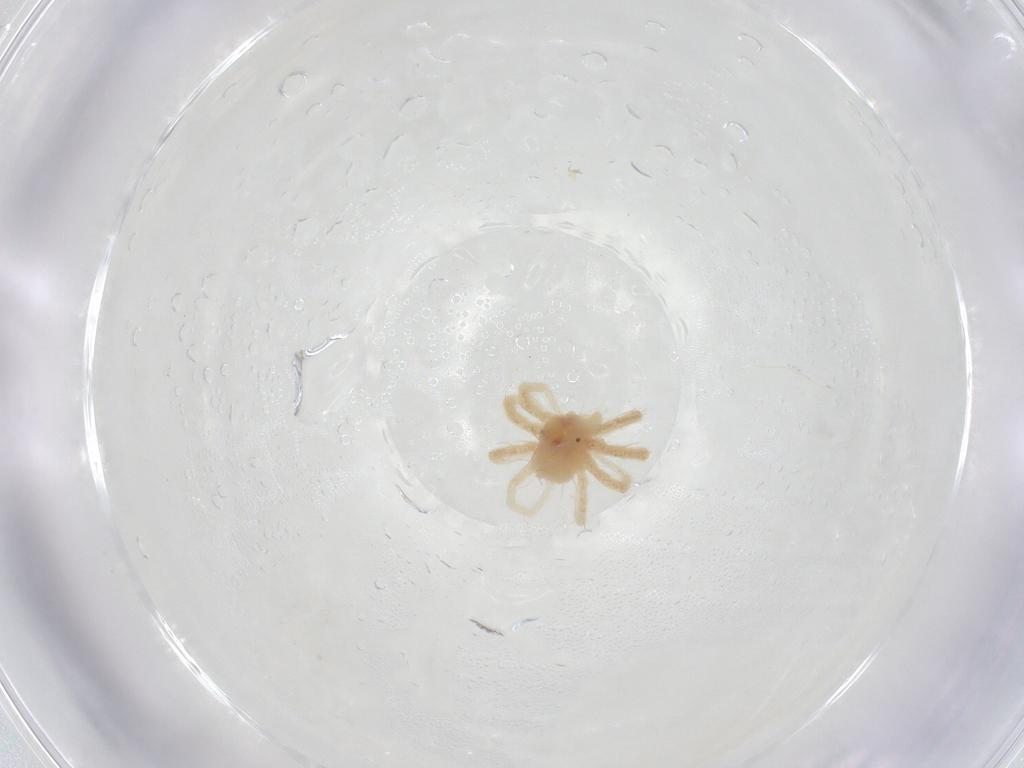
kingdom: Animalia
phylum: Arthropoda
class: Arachnida
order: Trombidiformes
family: Anystidae
